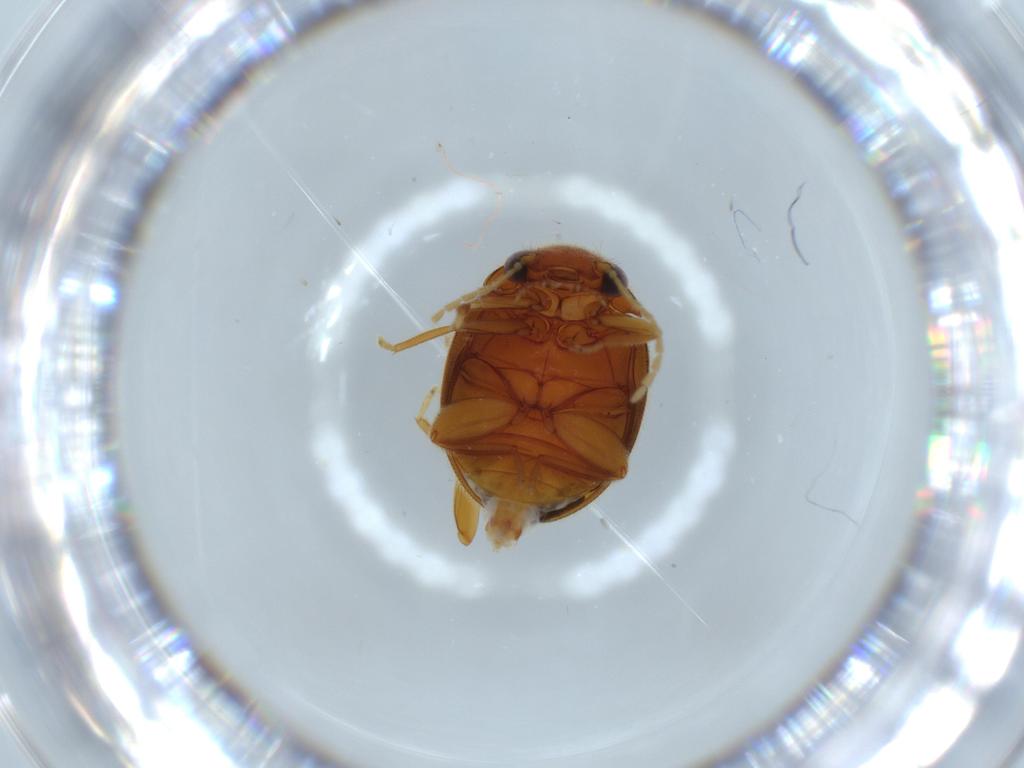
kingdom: Animalia
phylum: Arthropoda
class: Insecta
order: Coleoptera
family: Scirtidae
